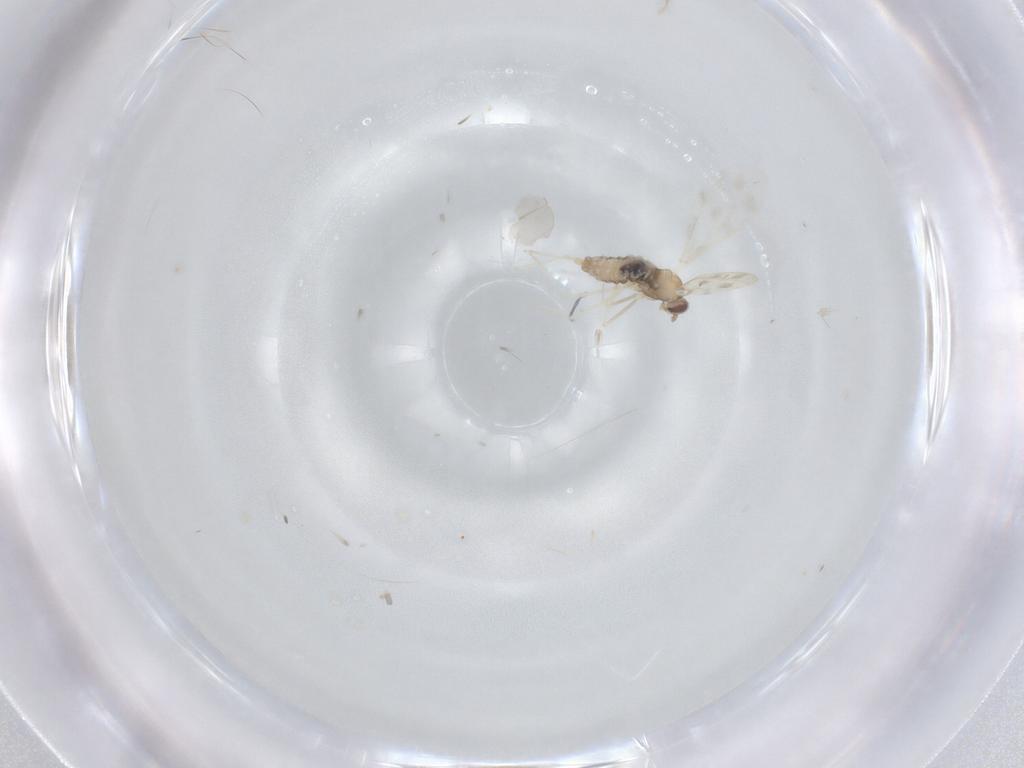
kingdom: Animalia
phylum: Arthropoda
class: Insecta
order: Diptera
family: Cecidomyiidae
